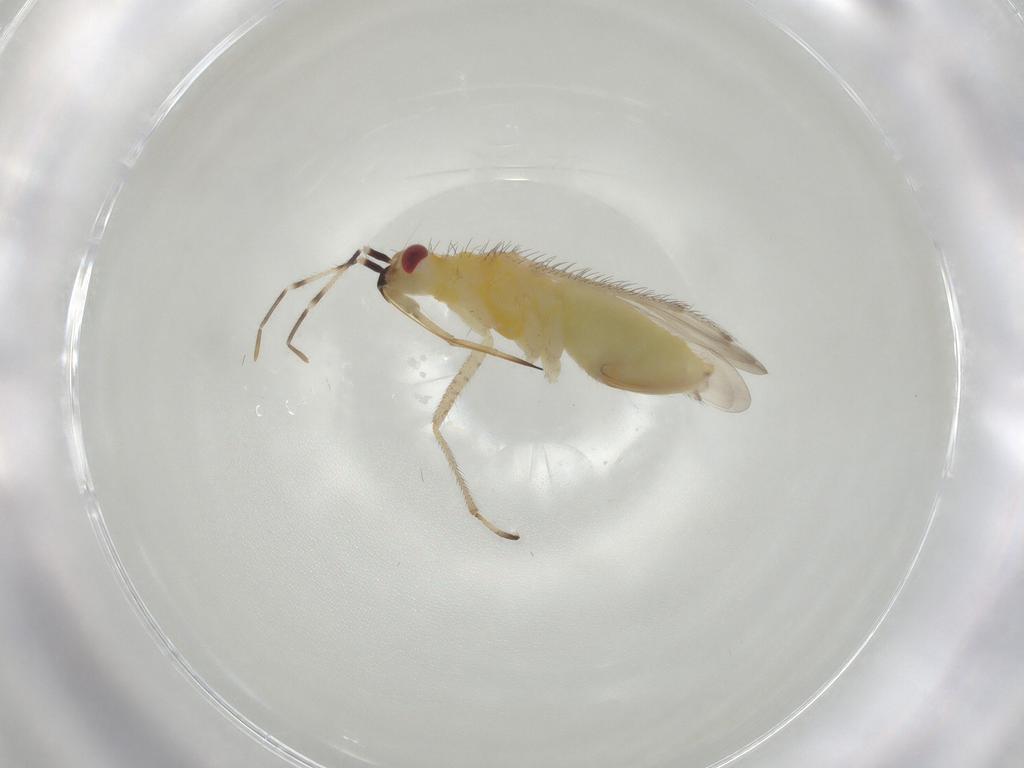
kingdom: Animalia
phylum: Arthropoda
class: Insecta
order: Hemiptera
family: Miridae
